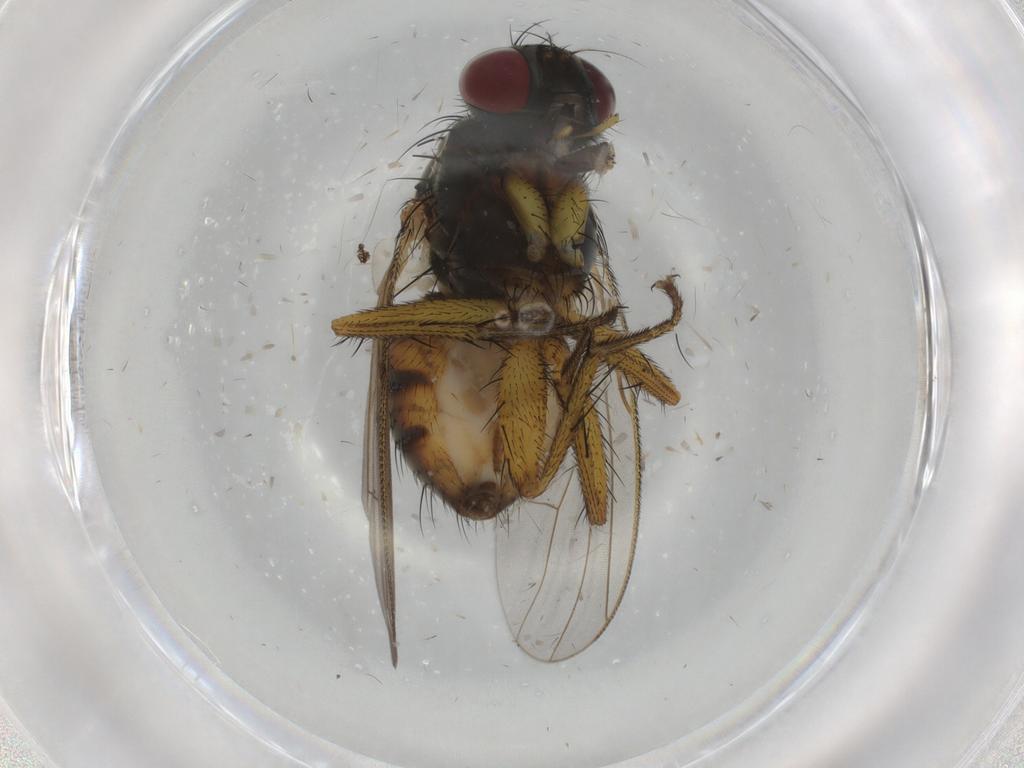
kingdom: Animalia
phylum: Arthropoda
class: Insecta
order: Diptera
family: Muscidae
